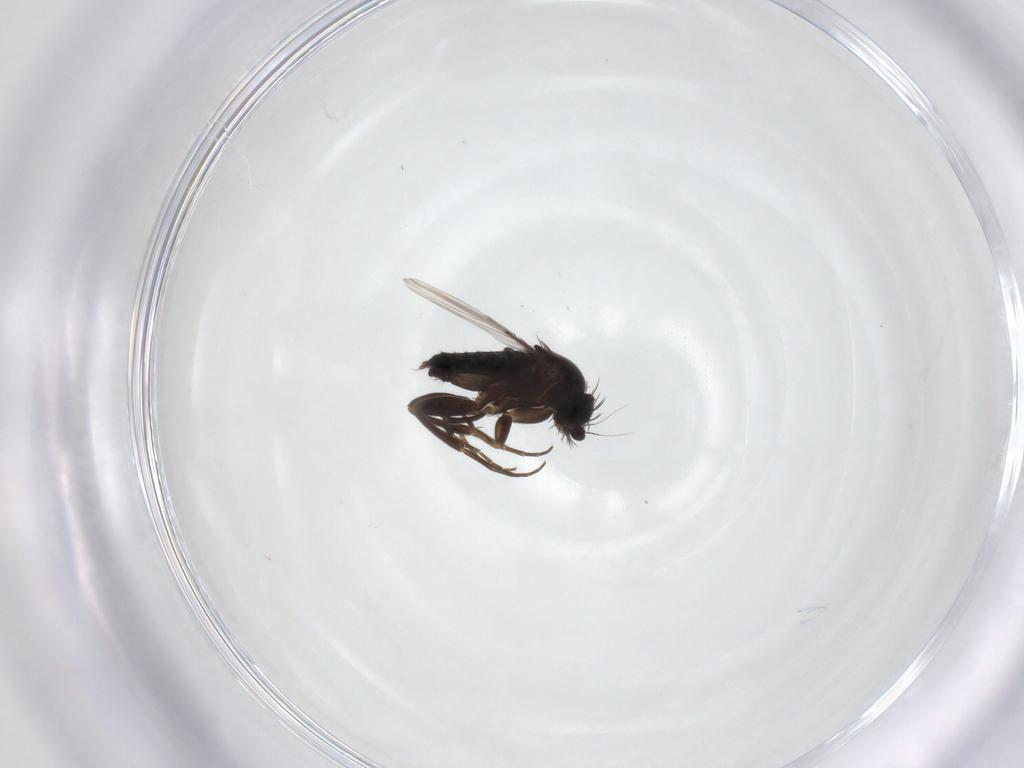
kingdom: Animalia
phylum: Arthropoda
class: Insecta
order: Diptera
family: Phoridae
